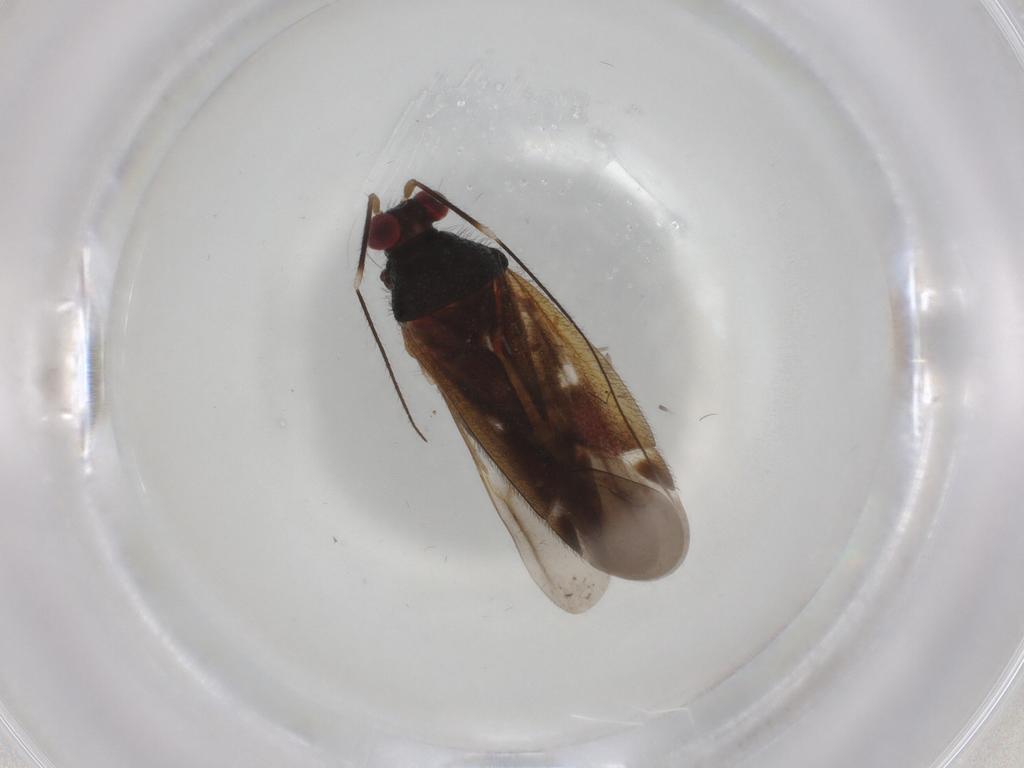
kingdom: Animalia
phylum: Arthropoda
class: Insecta
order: Hemiptera
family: Miridae
